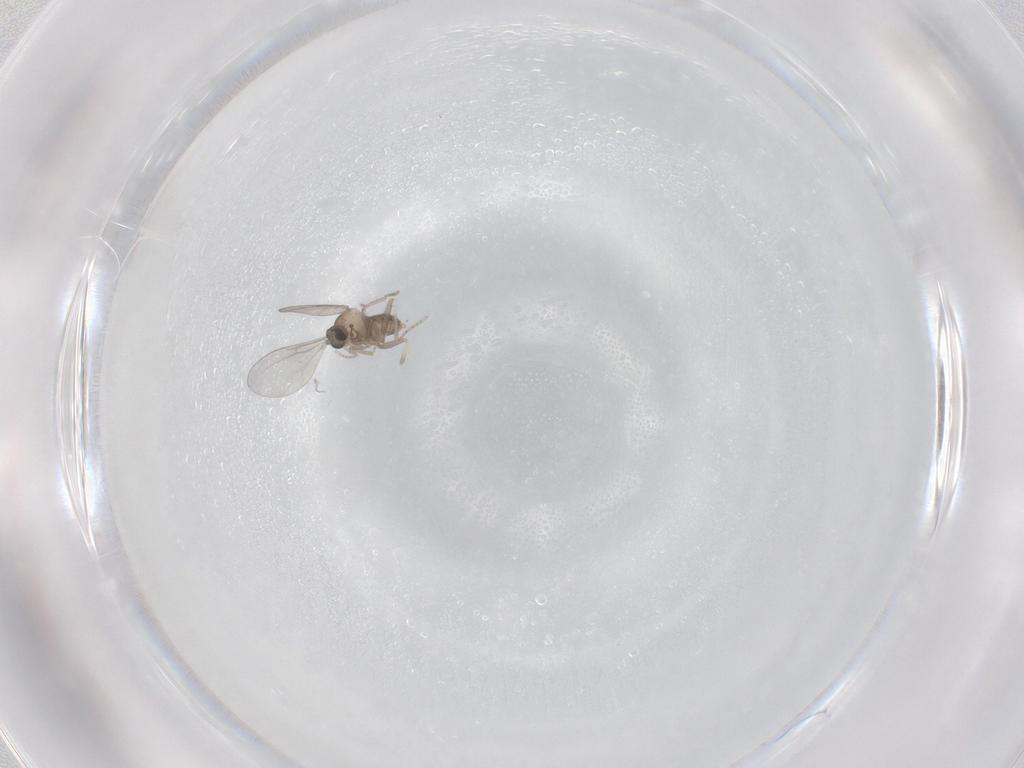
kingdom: Animalia
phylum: Arthropoda
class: Insecta
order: Diptera
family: Cecidomyiidae
